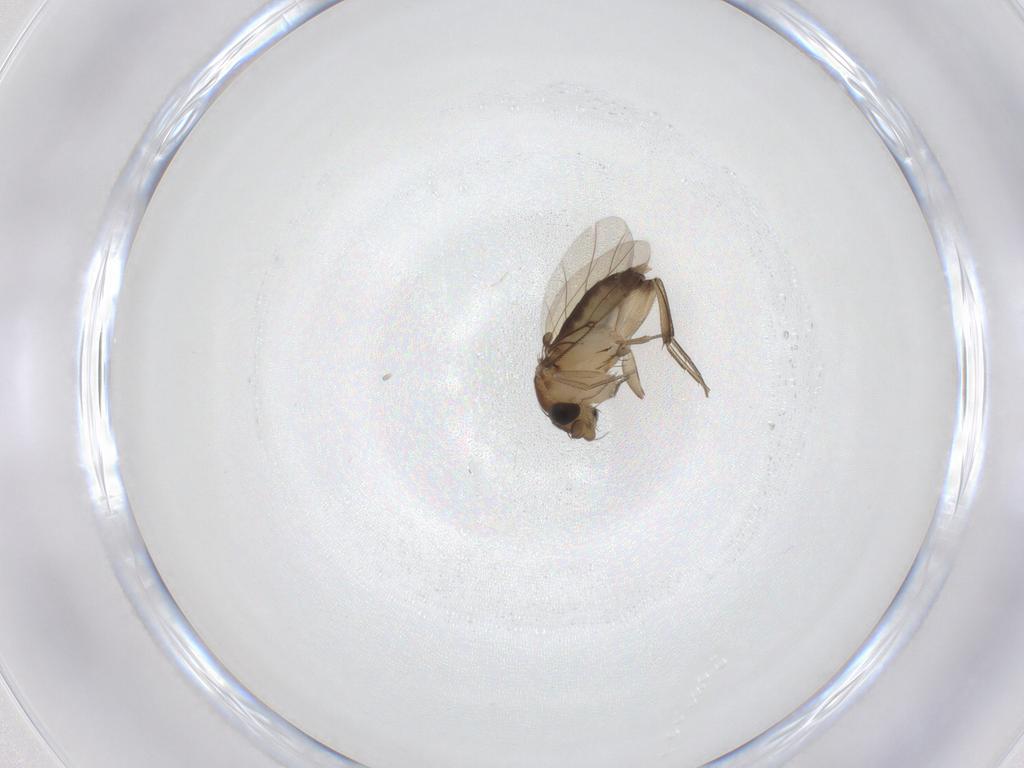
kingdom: Animalia
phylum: Arthropoda
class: Insecta
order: Diptera
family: Phoridae
